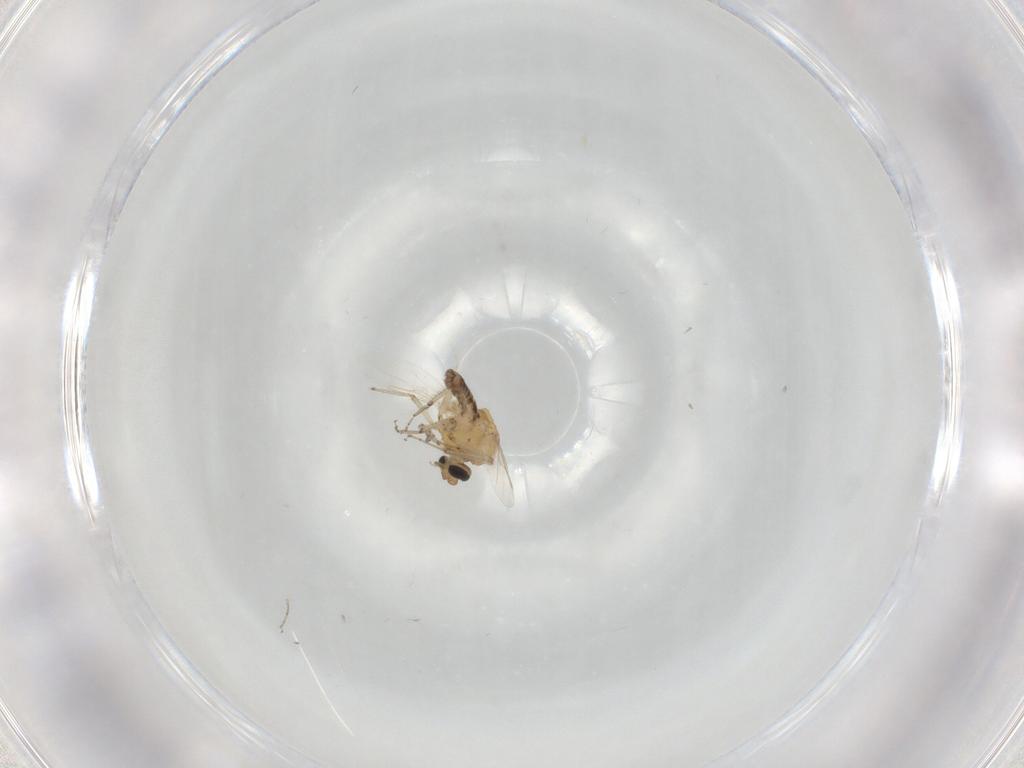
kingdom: Animalia
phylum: Arthropoda
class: Insecta
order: Diptera
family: Ceratopogonidae
